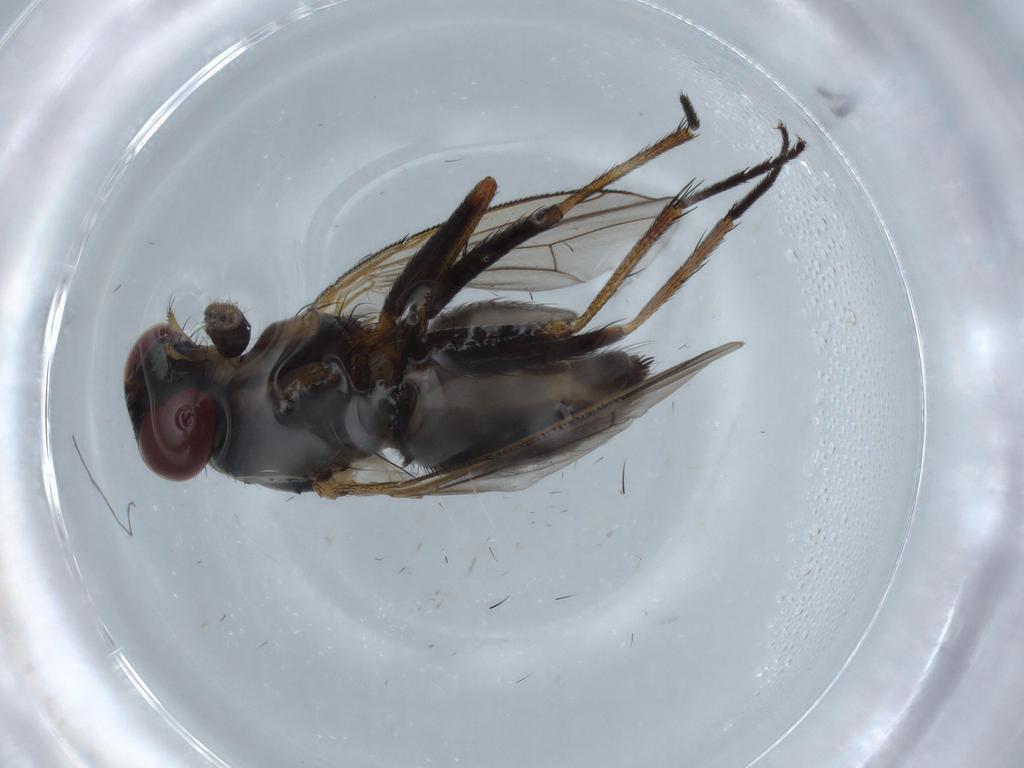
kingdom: Animalia
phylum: Arthropoda
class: Insecta
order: Diptera
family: Muscidae
